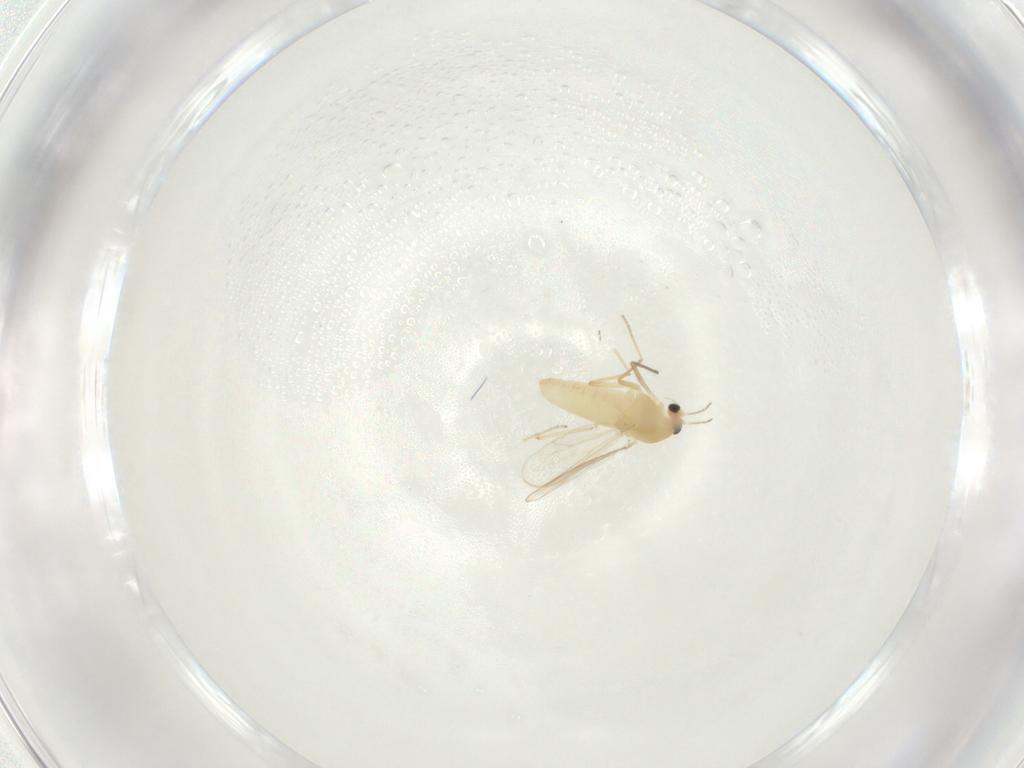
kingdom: Animalia
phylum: Arthropoda
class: Insecta
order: Diptera
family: Chironomidae
